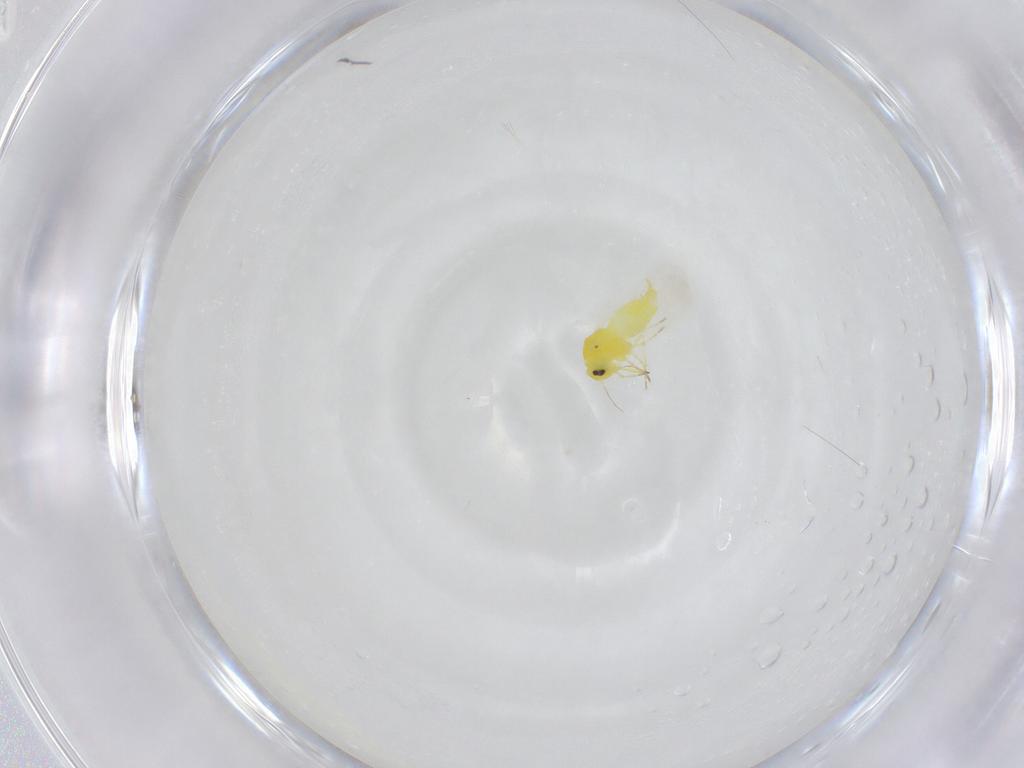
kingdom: Animalia
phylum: Arthropoda
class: Insecta
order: Hemiptera
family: Aleyrodidae
